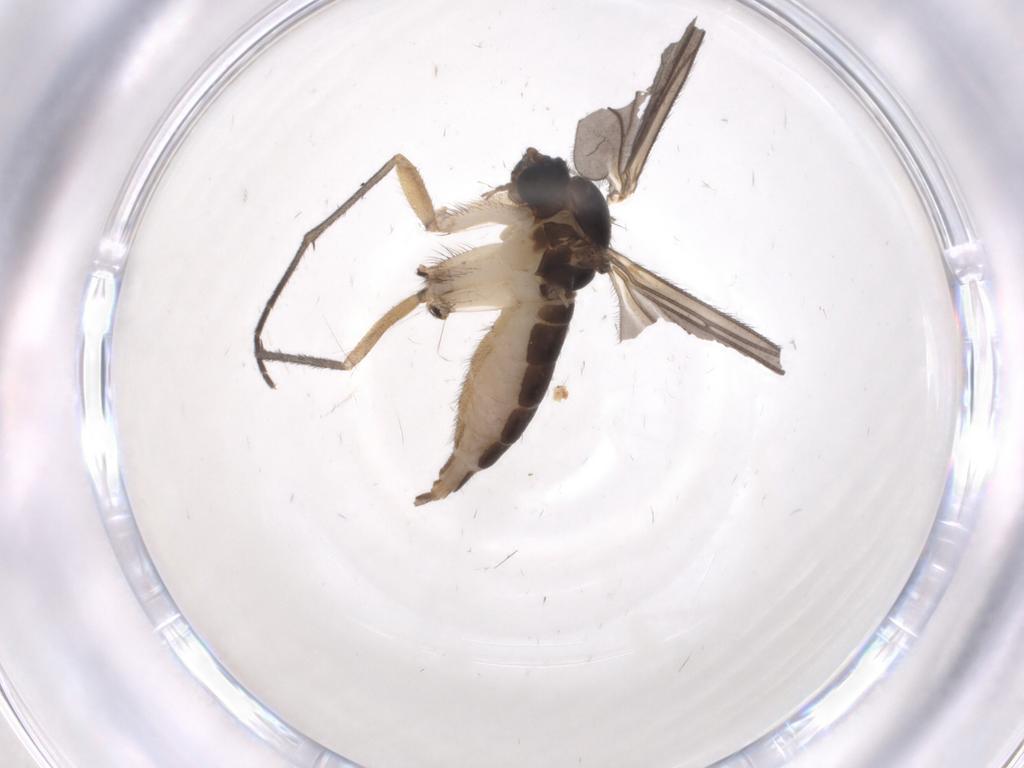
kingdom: Animalia
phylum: Arthropoda
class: Insecta
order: Diptera
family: Sciaridae
